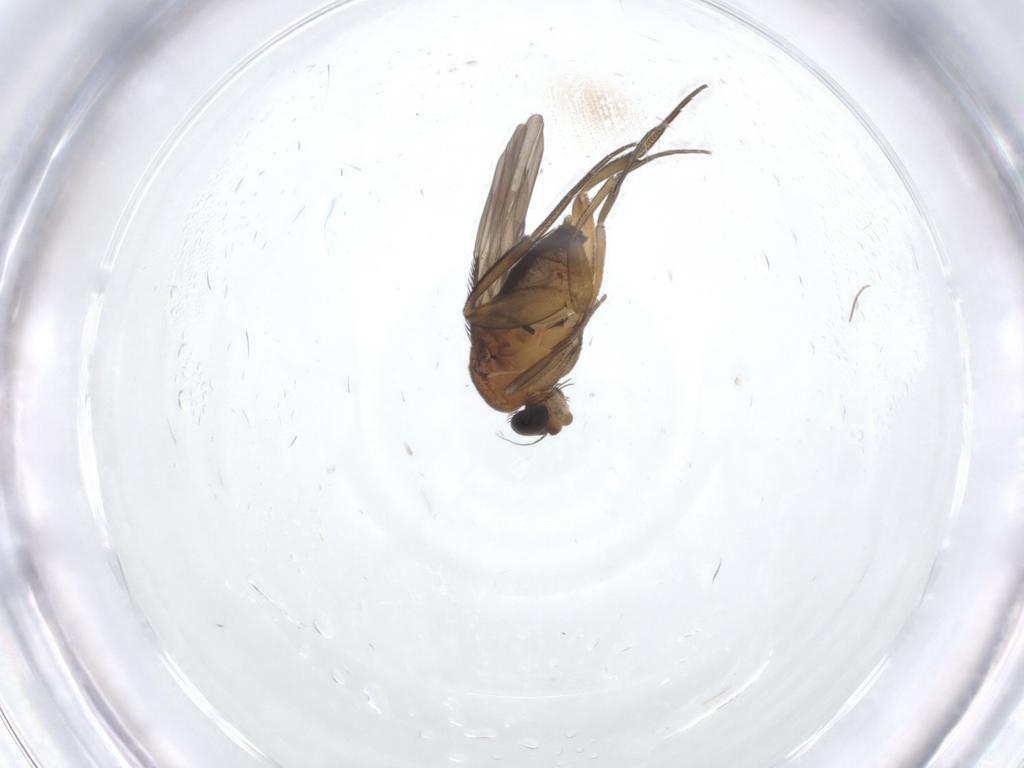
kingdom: Animalia
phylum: Arthropoda
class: Insecta
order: Diptera
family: Phoridae
